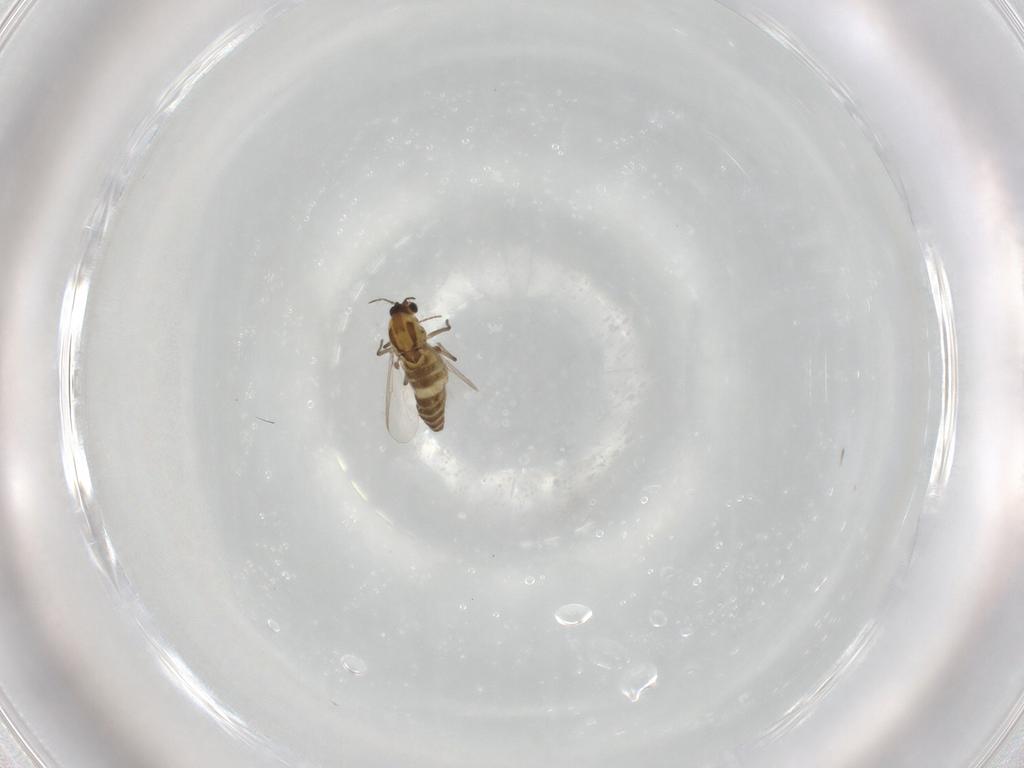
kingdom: Animalia
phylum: Arthropoda
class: Insecta
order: Diptera
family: Chironomidae
